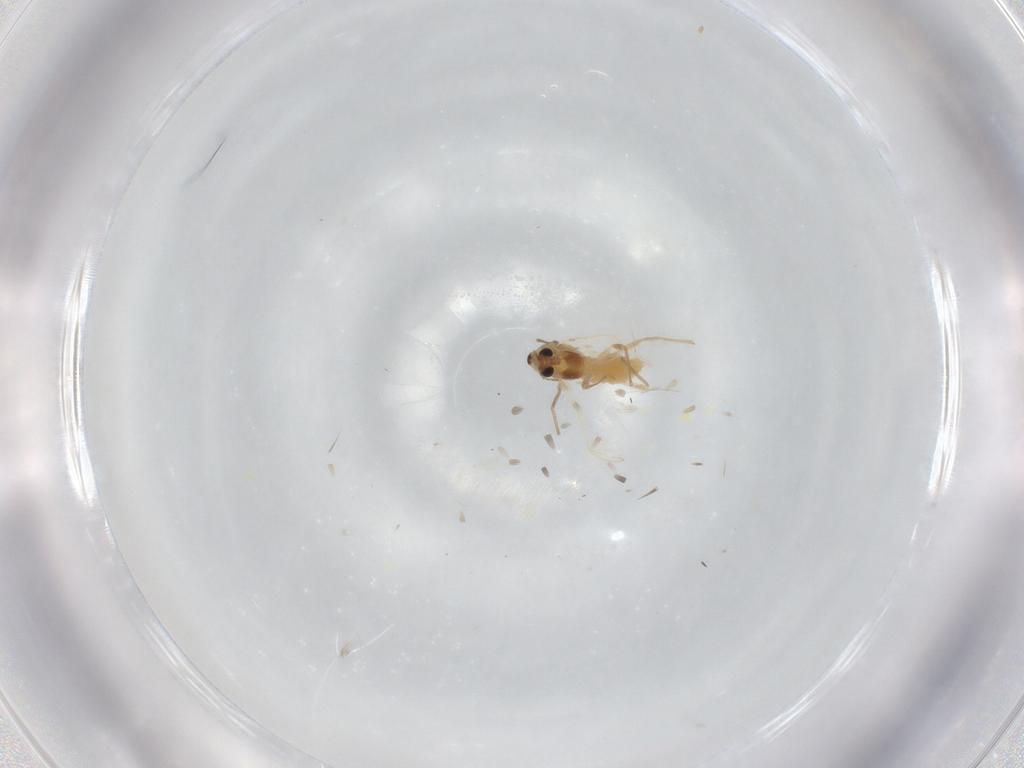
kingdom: Animalia
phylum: Arthropoda
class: Insecta
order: Diptera
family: Chironomidae
